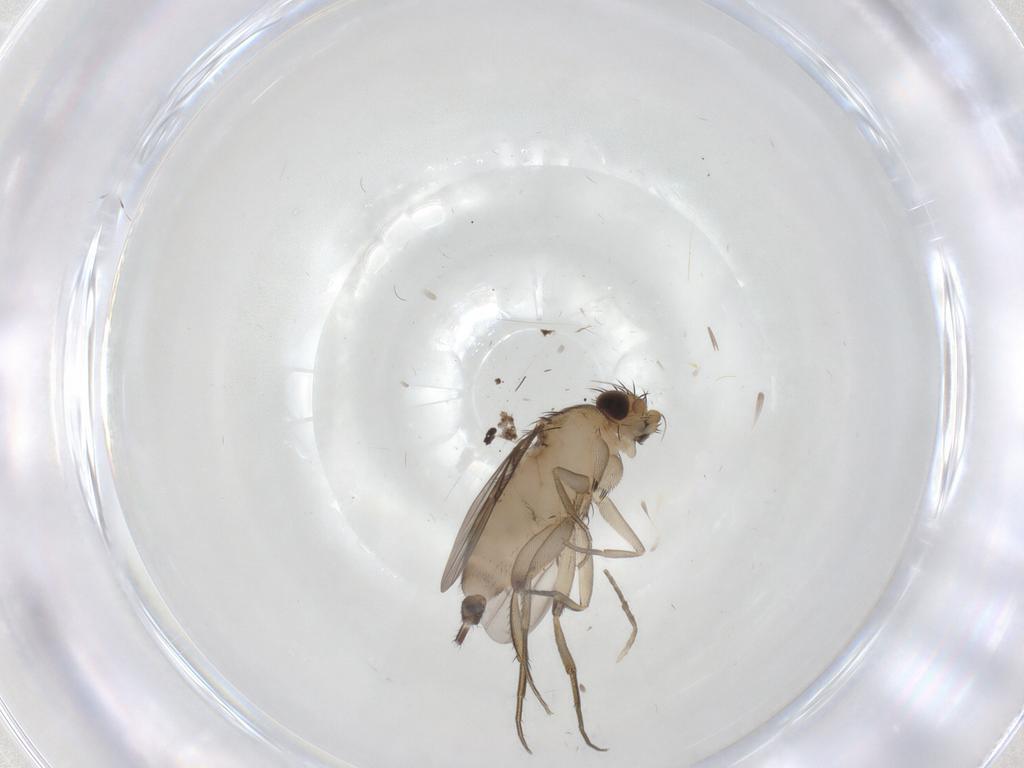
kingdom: Animalia
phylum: Arthropoda
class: Insecta
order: Diptera
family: Phoridae
